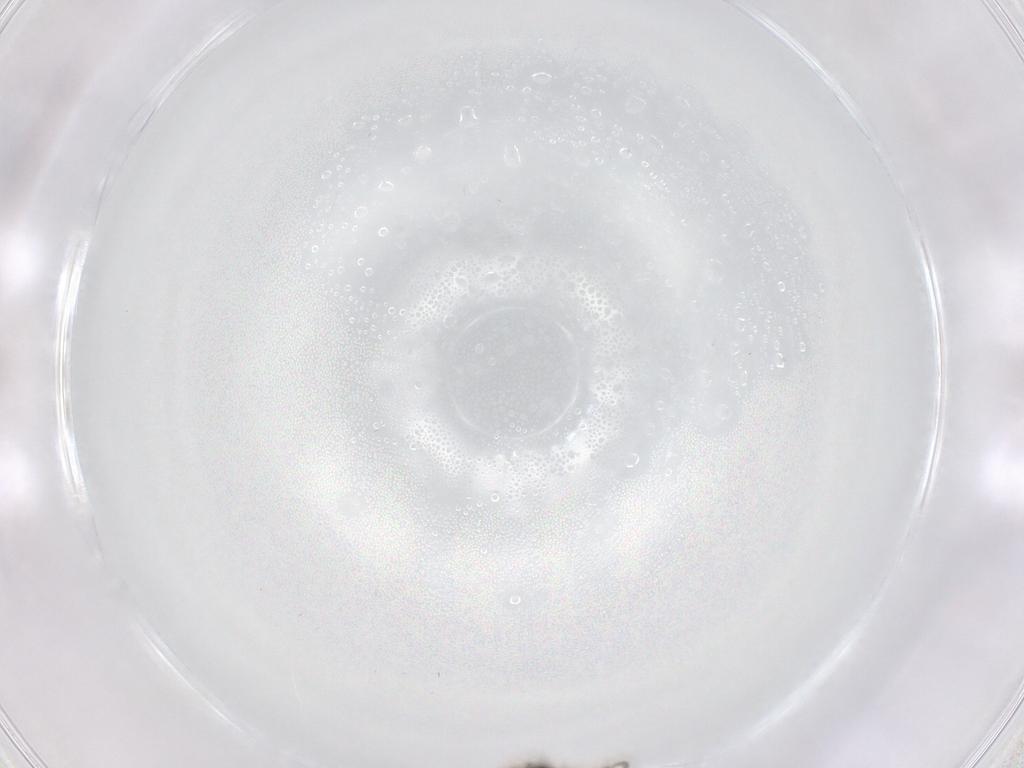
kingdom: Animalia
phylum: Arthropoda
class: Insecta
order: Diptera
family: Chironomidae
